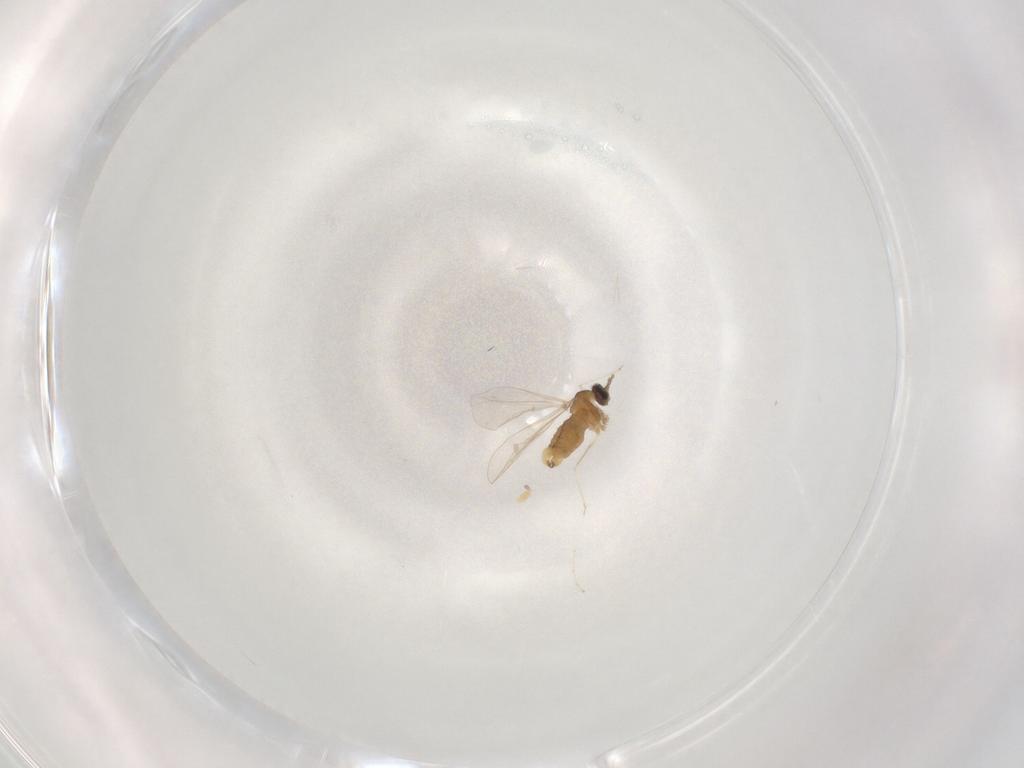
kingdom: Animalia
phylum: Arthropoda
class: Insecta
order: Diptera
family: Cecidomyiidae
